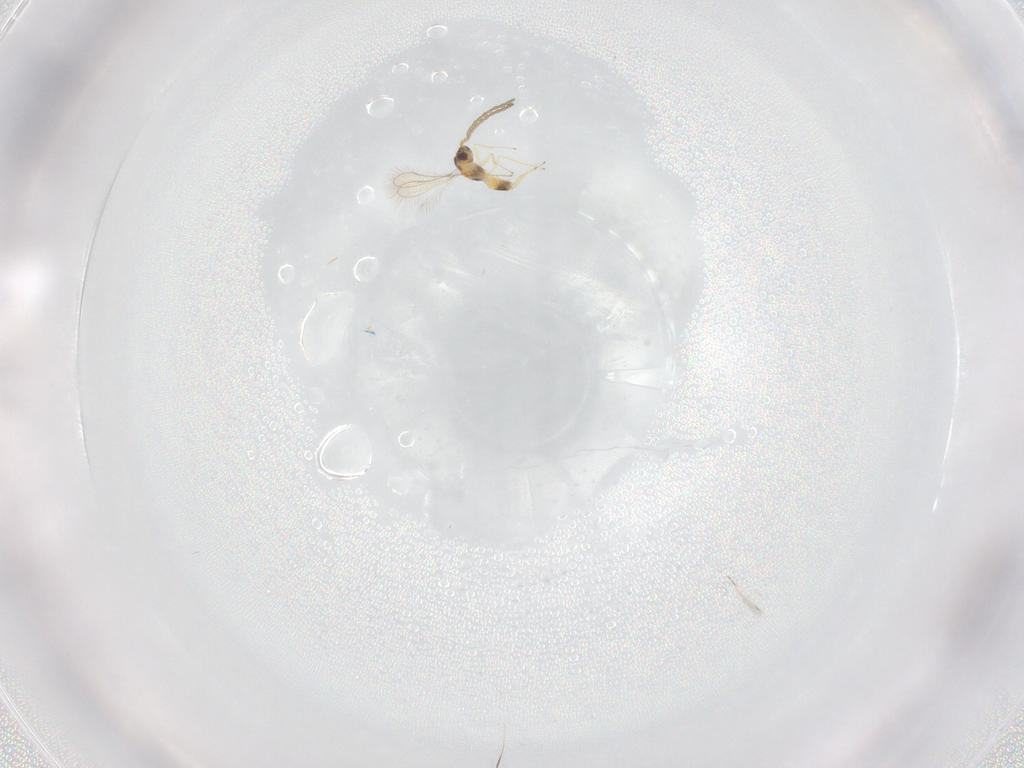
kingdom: Animalia
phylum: Arthropoda
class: Insecta
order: Hymenoptera
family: Mymaridae
